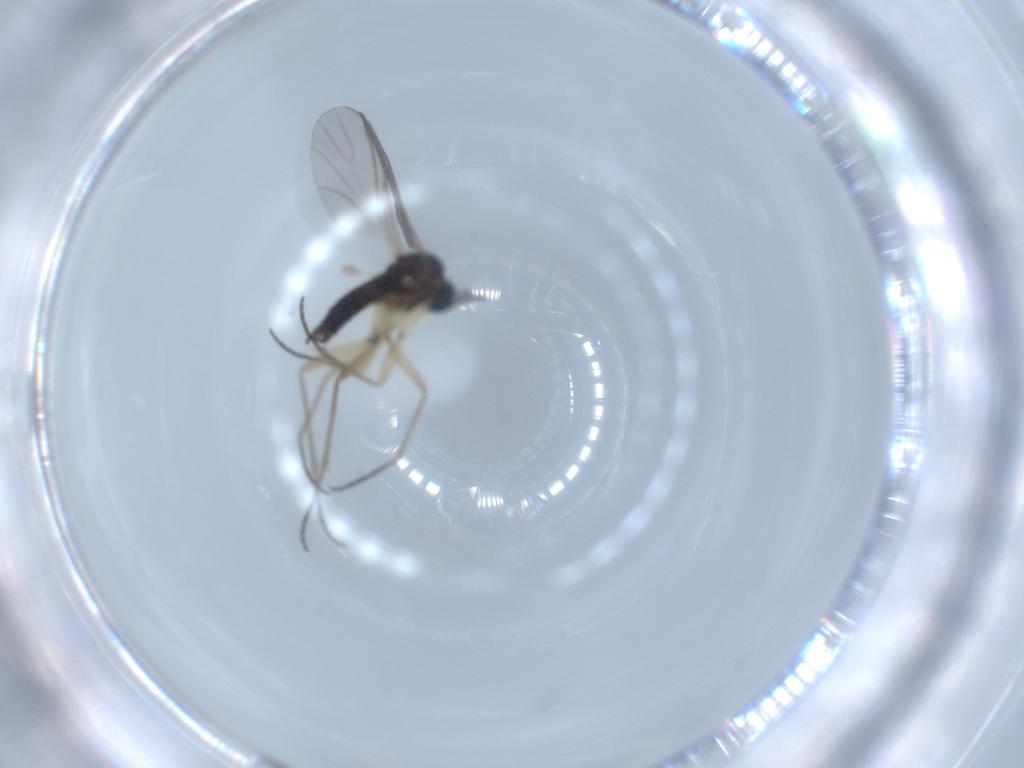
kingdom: Animalia
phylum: Arthropoda
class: Insecta
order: Diptera
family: Sciaridae
